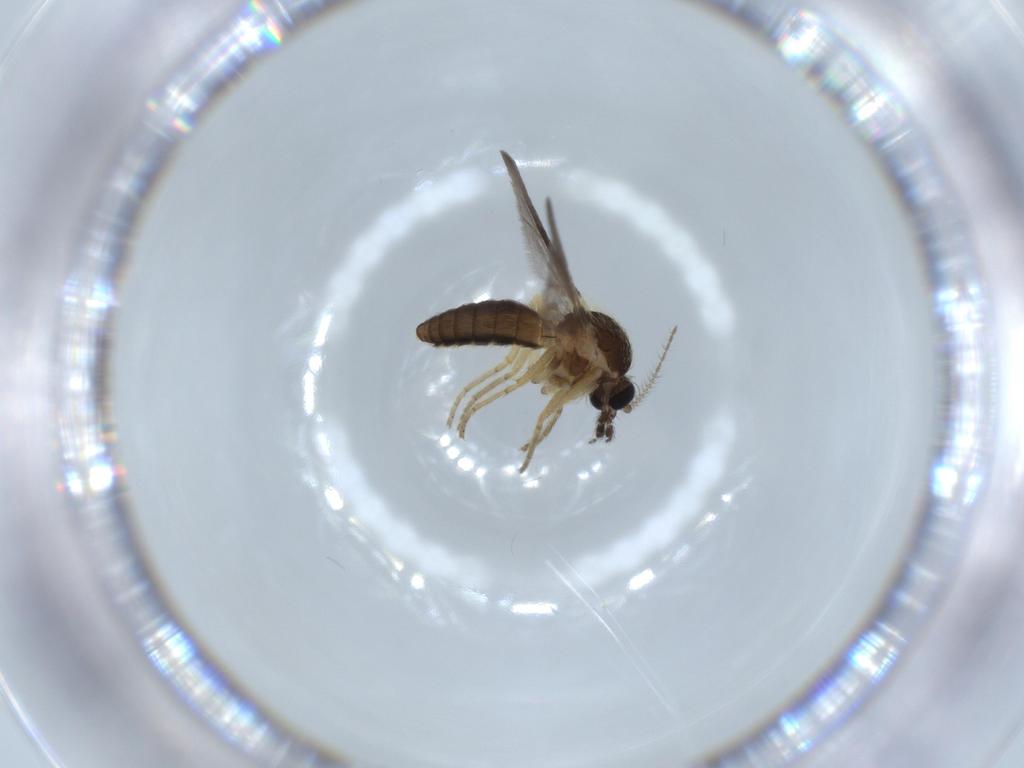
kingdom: Animalia
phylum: Arthropoda
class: Insecta
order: Diptera
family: Ceratopogonidae
